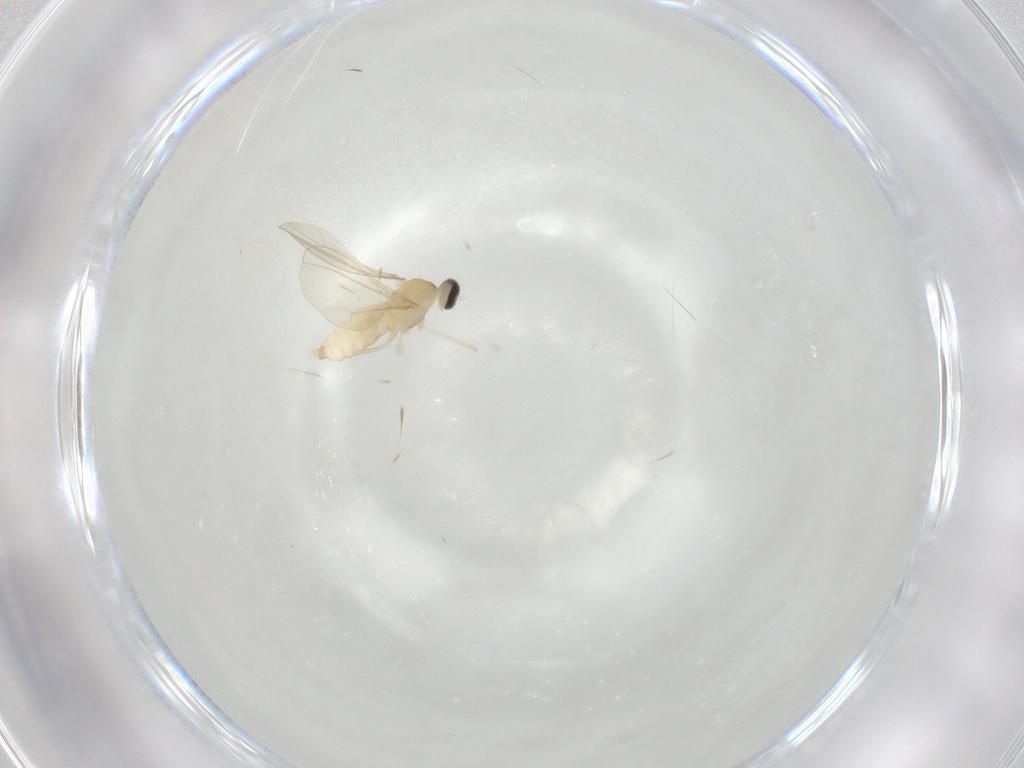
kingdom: Animalia
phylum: Arthropoda
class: Insecta
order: Diptera
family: Cecidomyiidae
